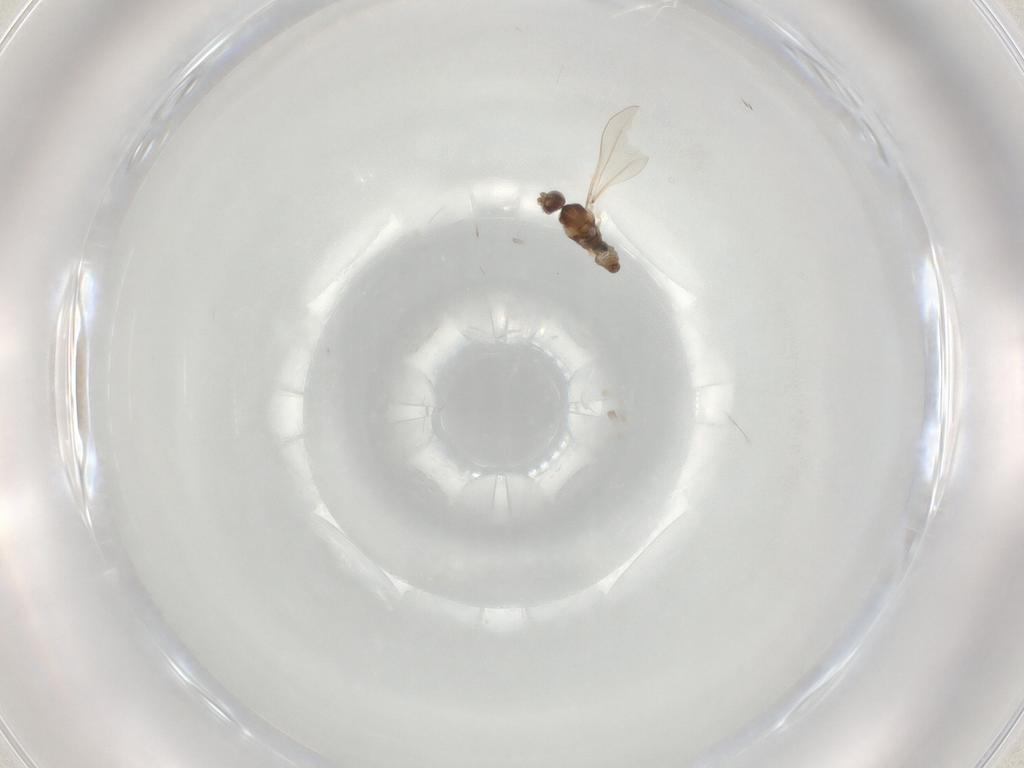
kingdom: Animalia
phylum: Arthropoda
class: Insecta
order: Diptera
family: Cecidomyiidae
